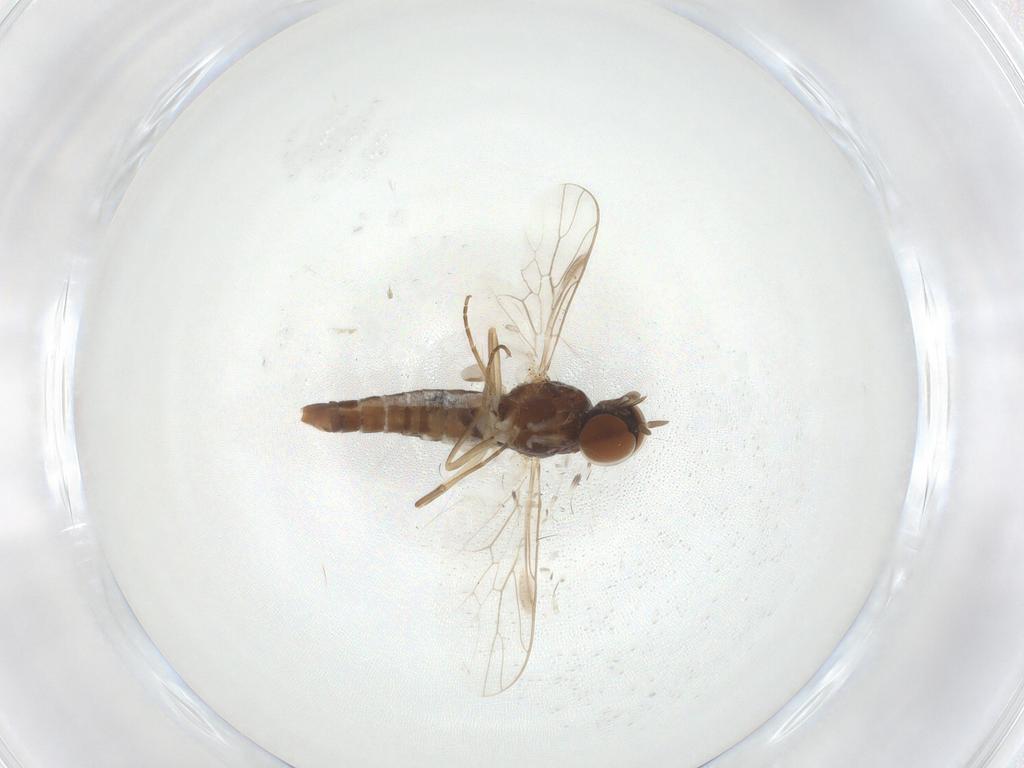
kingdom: Animalia
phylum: Arthropoda
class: Insecta
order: Diptera
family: Scenopinidae
